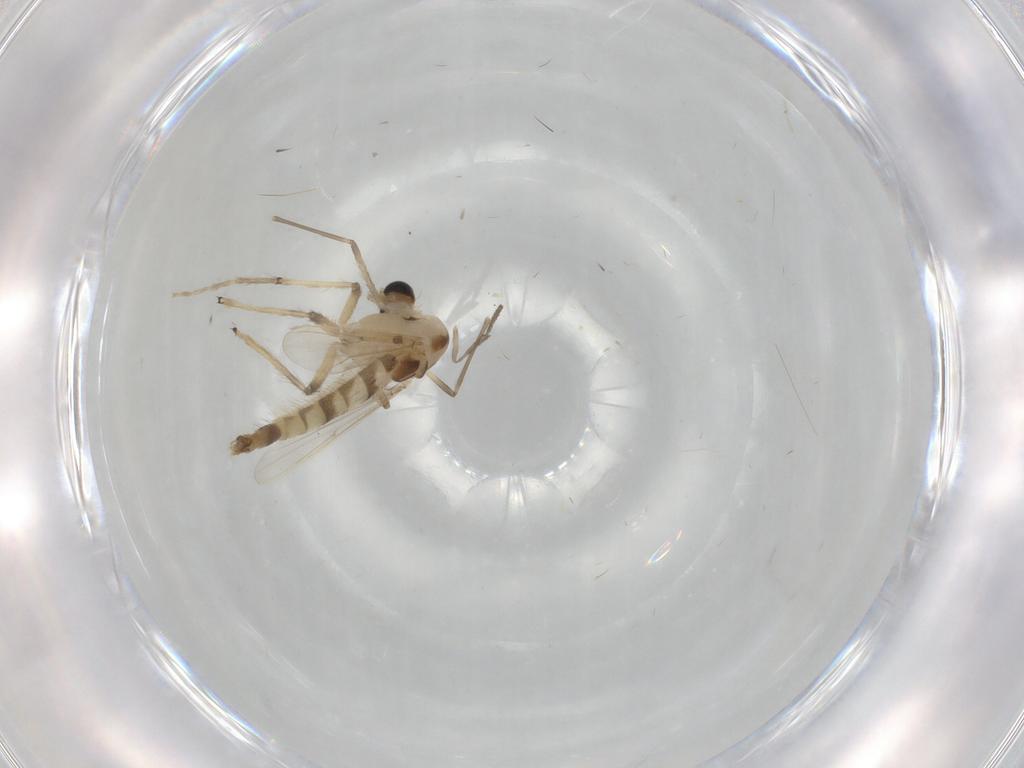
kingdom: Animalia
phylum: Arthropoda
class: Insecta
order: Diptera
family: Chironomidae
